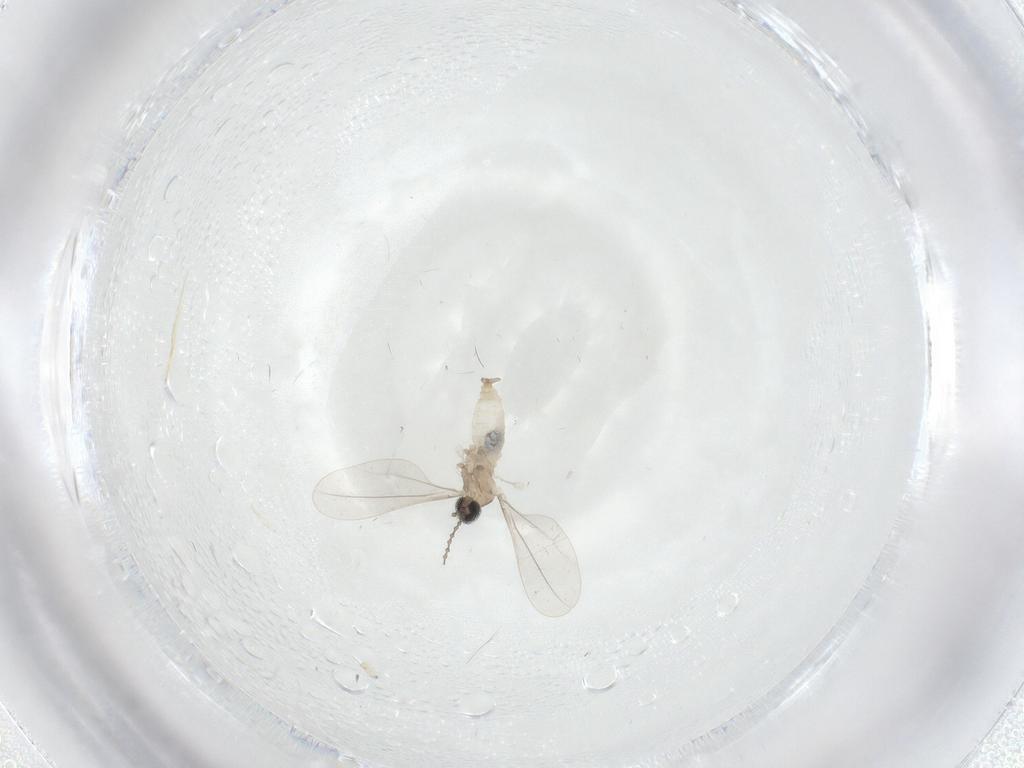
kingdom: Animalia
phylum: Arthropoda
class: Insecta
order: Diptera
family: Cecidomyiidae
